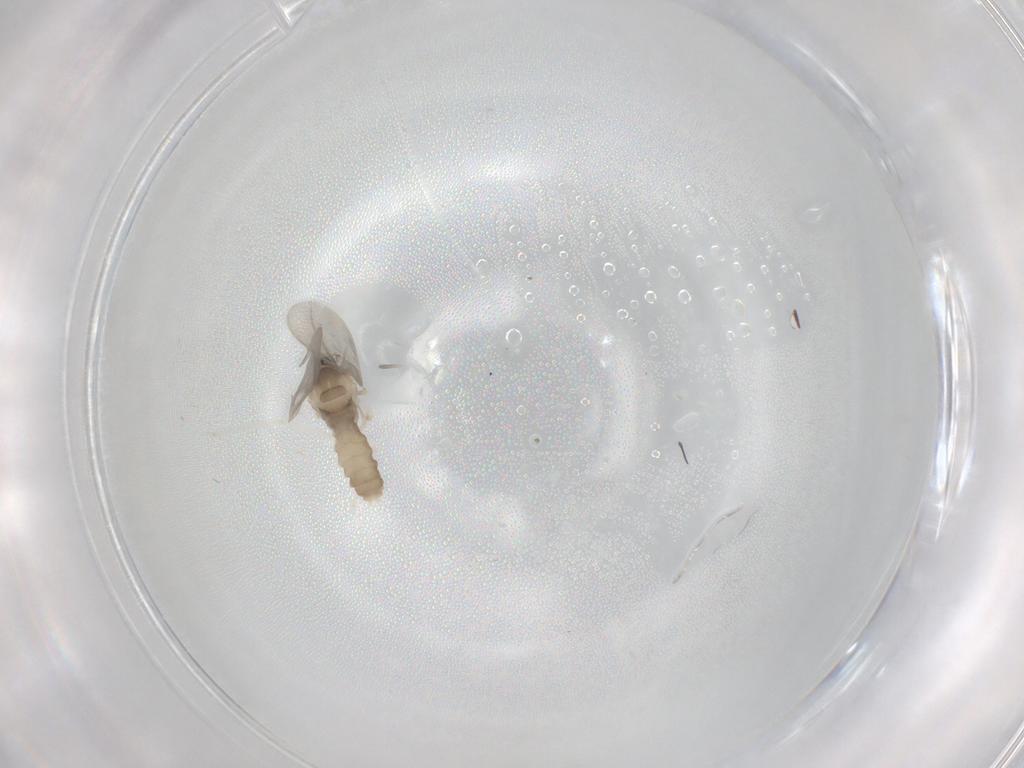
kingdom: Animalia
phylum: Arthropoda
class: Insecta
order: Diptera
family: Cecidomyiidae
